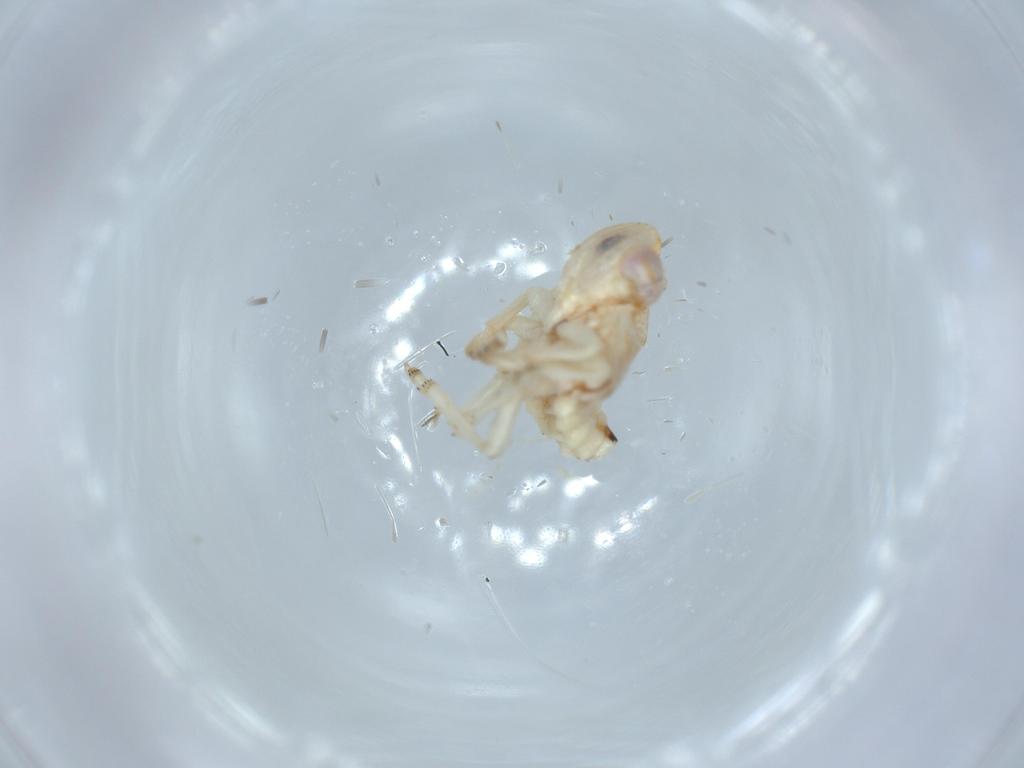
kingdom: Animalia
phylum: Arthropoda
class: Insecta
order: Hemiptera
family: Nogodinidae
